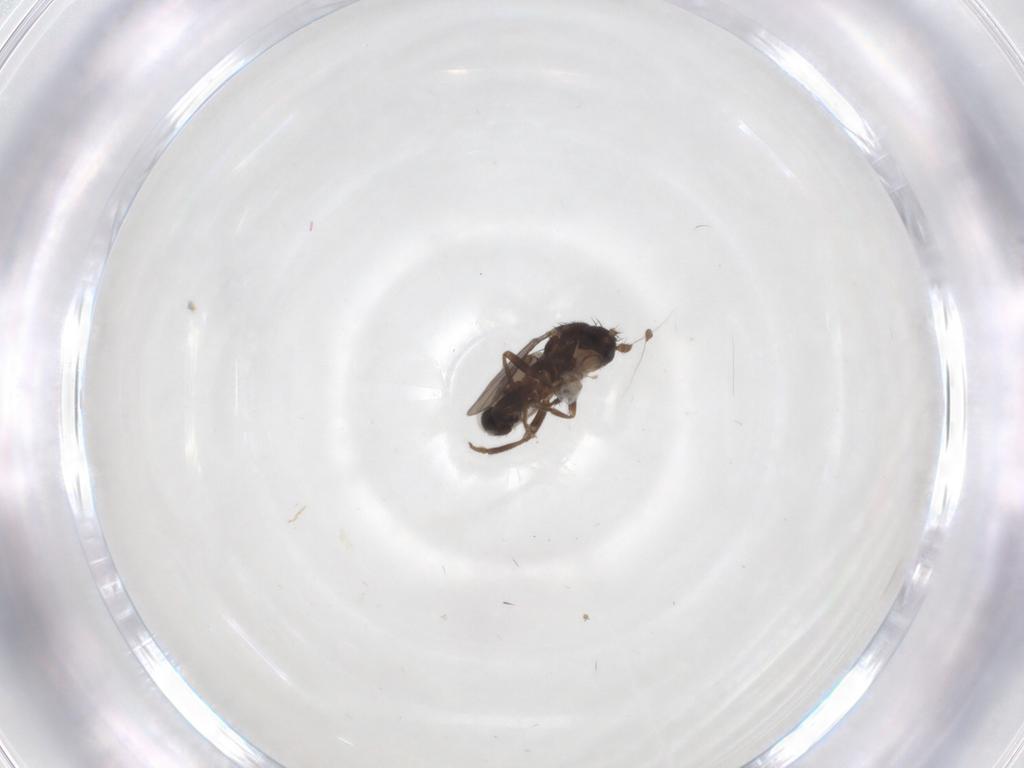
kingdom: Animalia
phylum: Arthropoda
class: Insecta
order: Diptera
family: Sphaeroceridae
